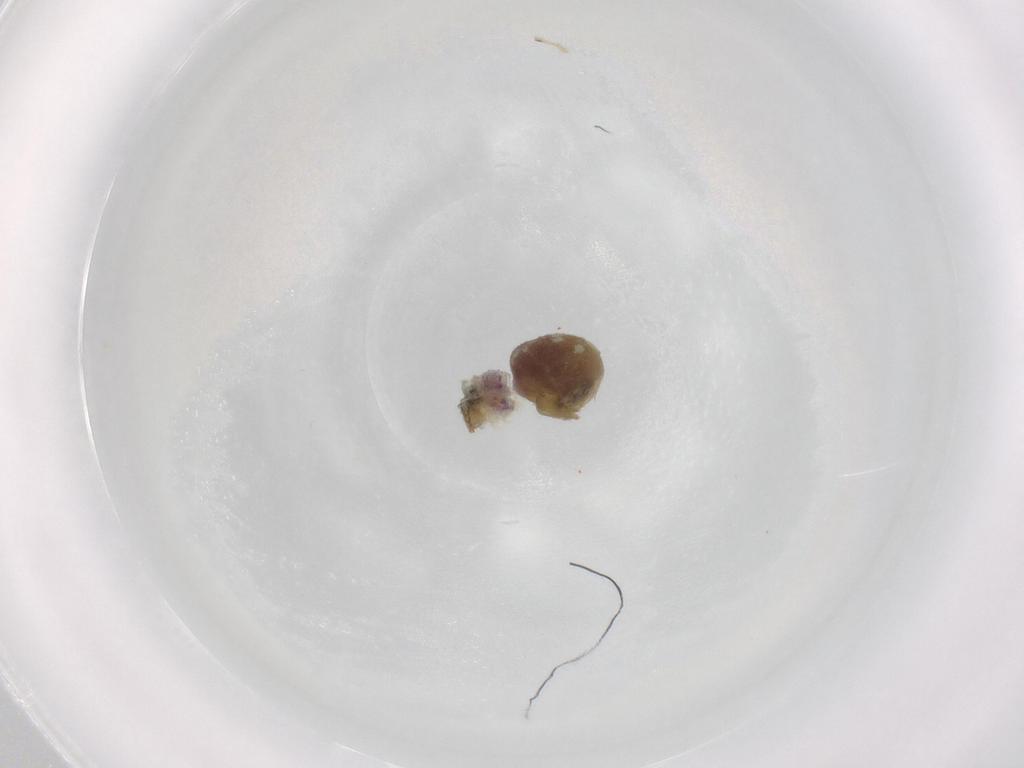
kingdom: Animalia
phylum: Arthropoda
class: Arachnida
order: Araneae
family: Pholcidae
